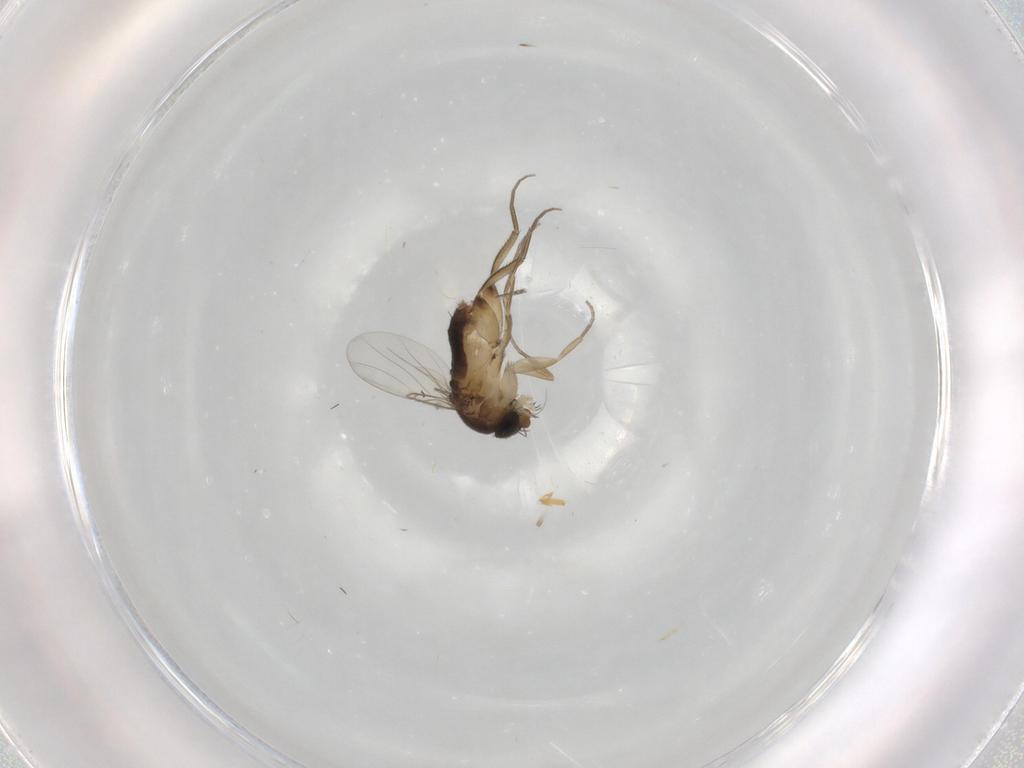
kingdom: Animalia
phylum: Arthropoda
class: Insecta
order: Diptera
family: Phoridae
